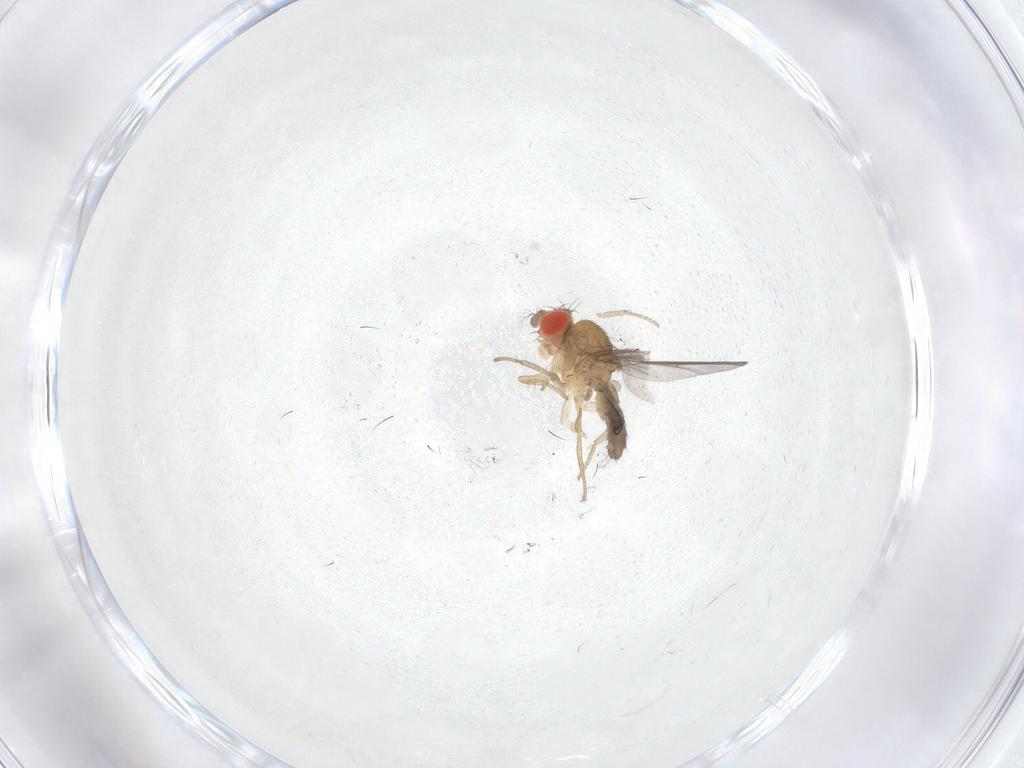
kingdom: Animalia
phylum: Arthropoda
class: Insecta
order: Diptera
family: Drosophilidae
